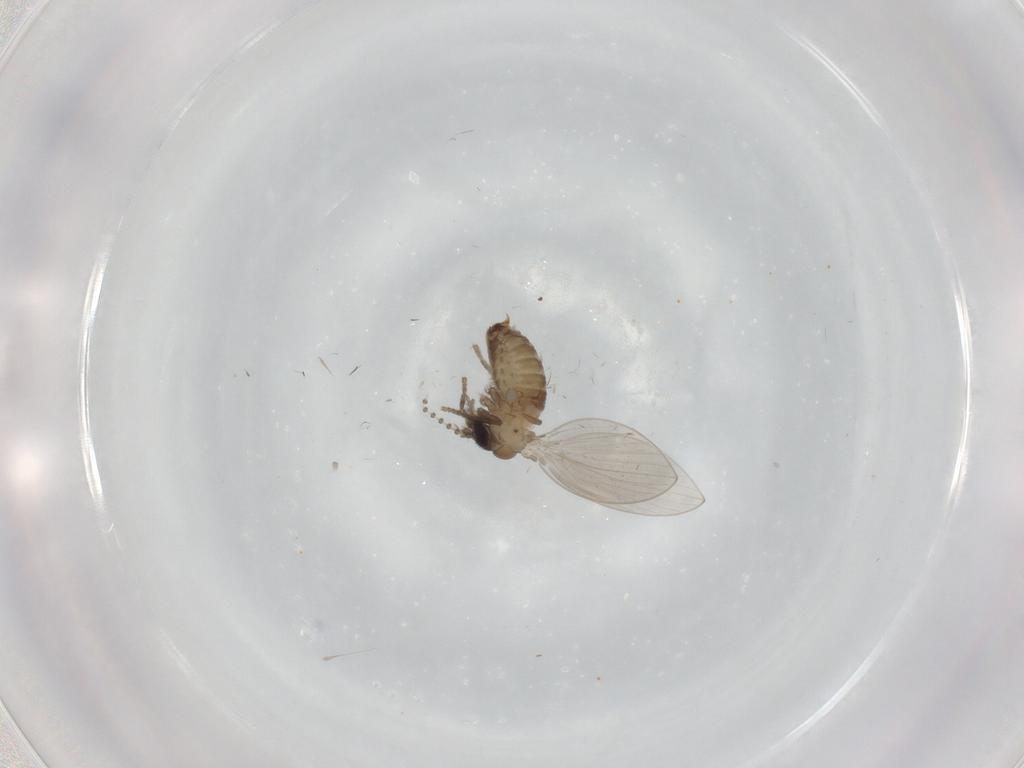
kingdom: Animalia
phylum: Arthropoda
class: Insecta
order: Diptera
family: Psychodidae
